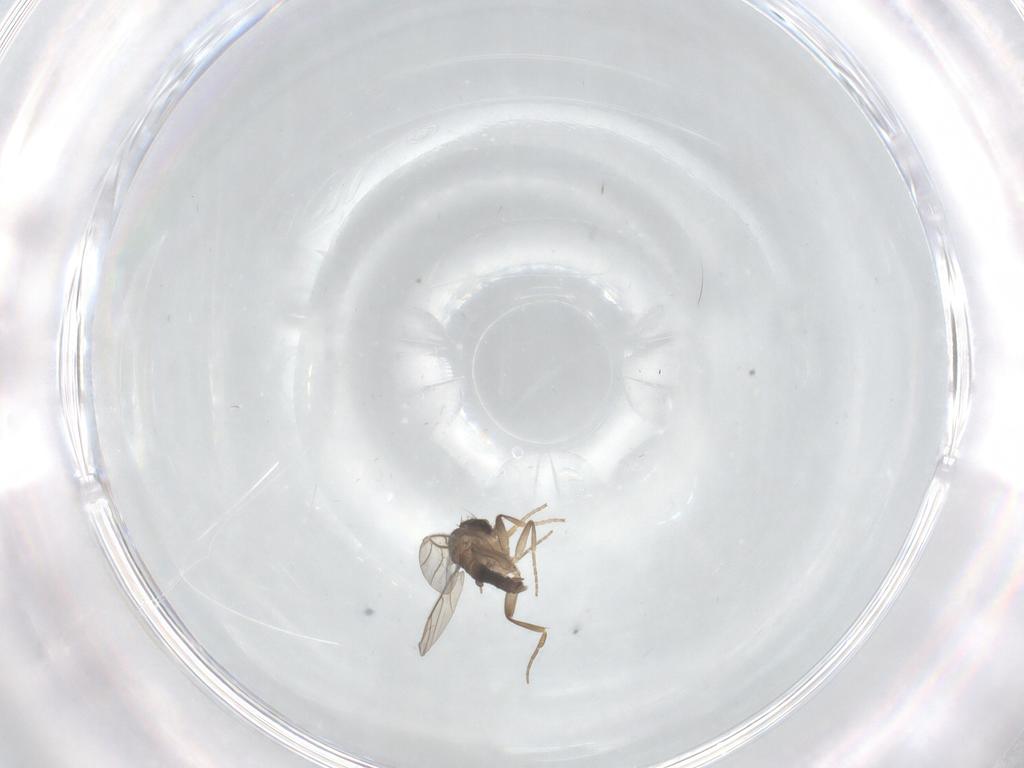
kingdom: Animalia
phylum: Arthropoda
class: Insecta
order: Diptera
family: Phoridae
